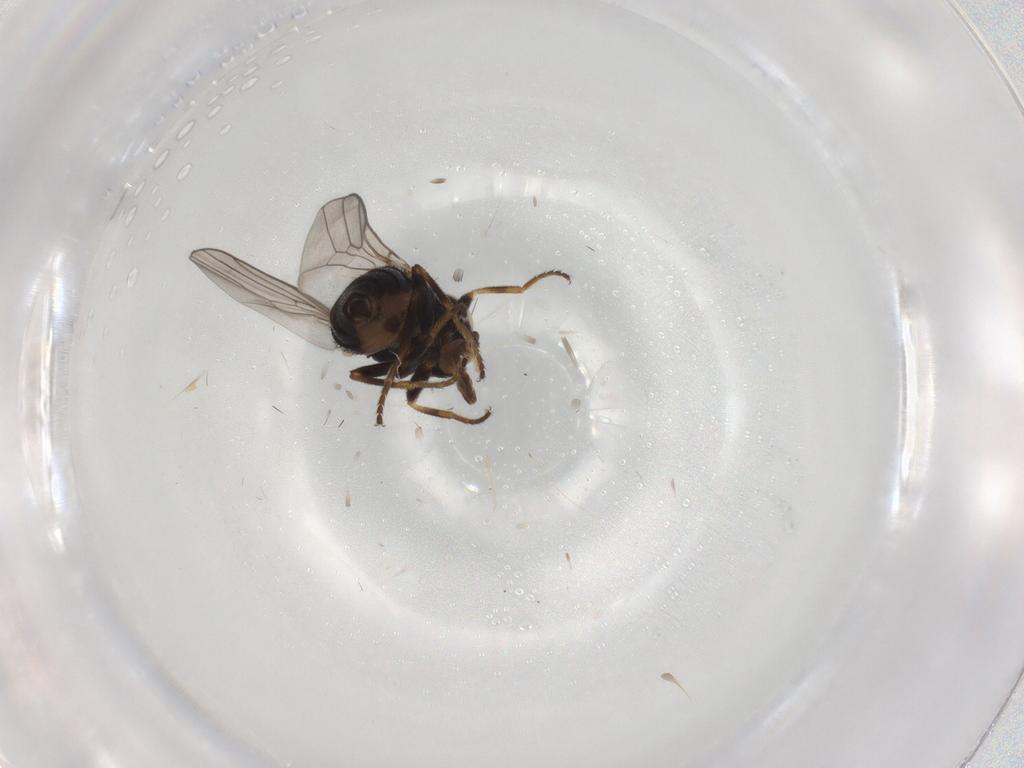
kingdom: Animalia
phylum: Arthropoda
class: Insecta
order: Diptera
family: Chloropidae
